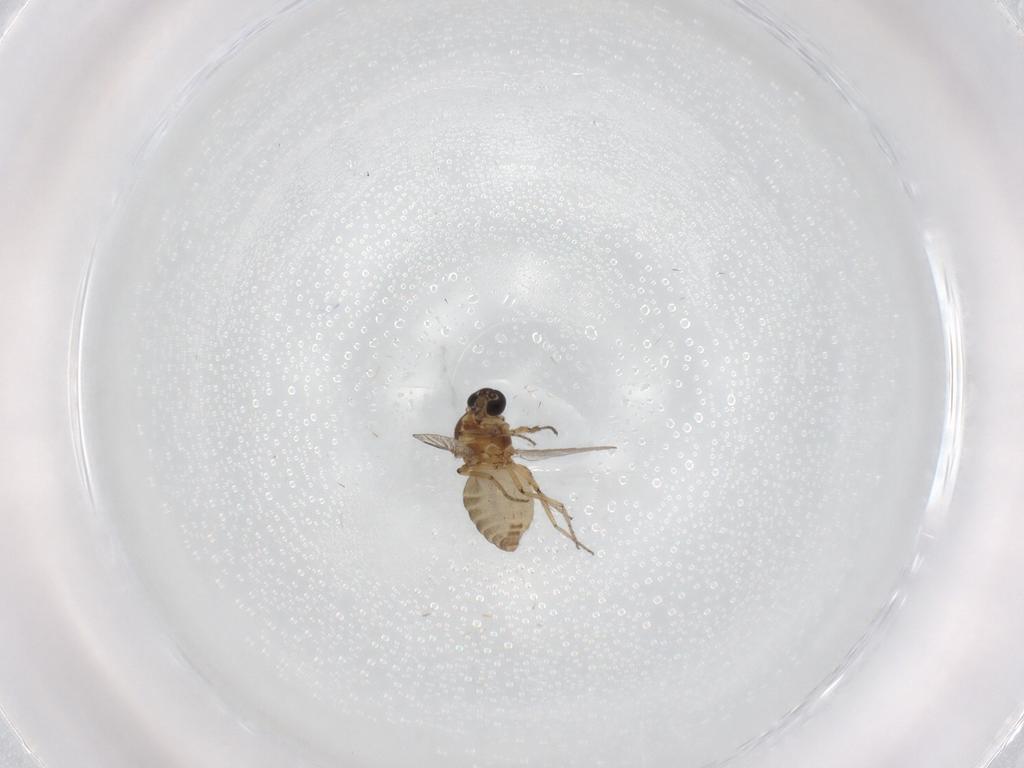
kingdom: Animalia
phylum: Arthropoda
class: Insecta
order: Diptera
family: Ceratopogonidae
